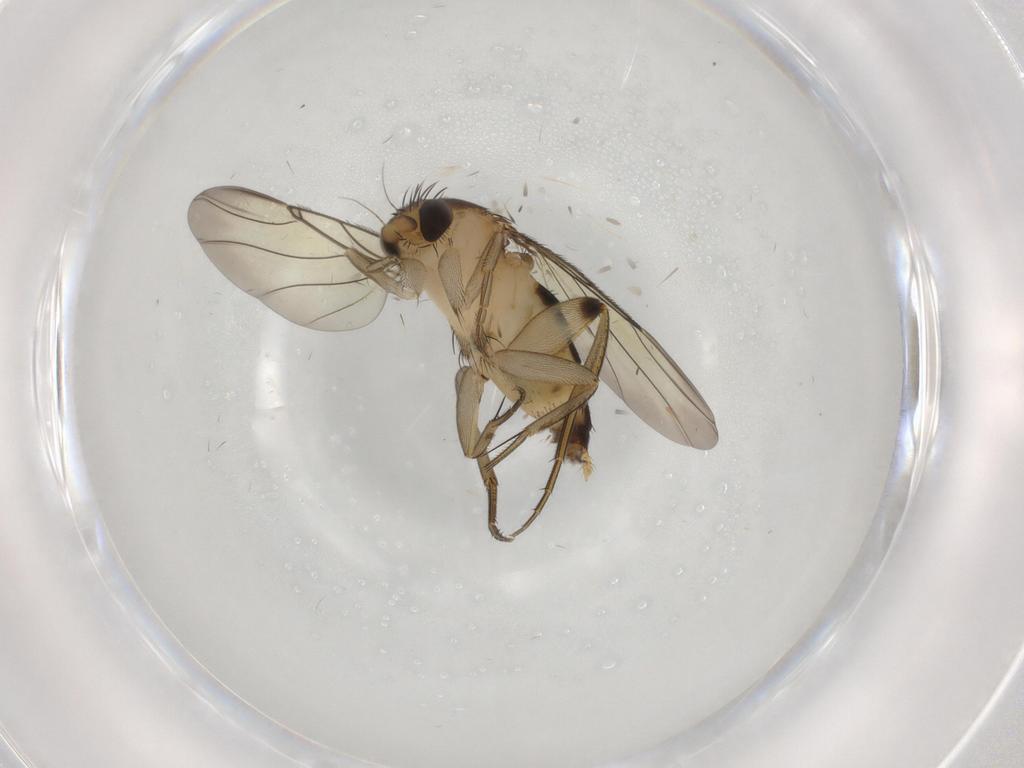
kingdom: Animalia
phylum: Arthropoda
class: Insecta
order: Diptera
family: Phoridae
